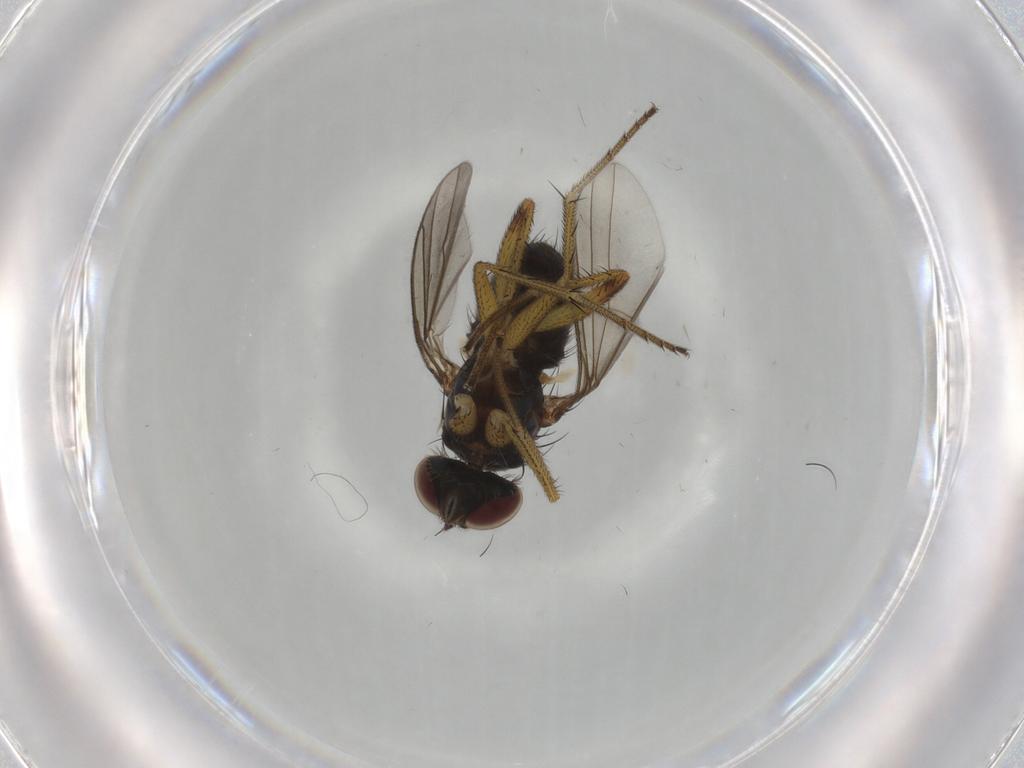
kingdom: Animalia
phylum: Arthropoda
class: Insecta
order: Diptera
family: Dolichopodidae
